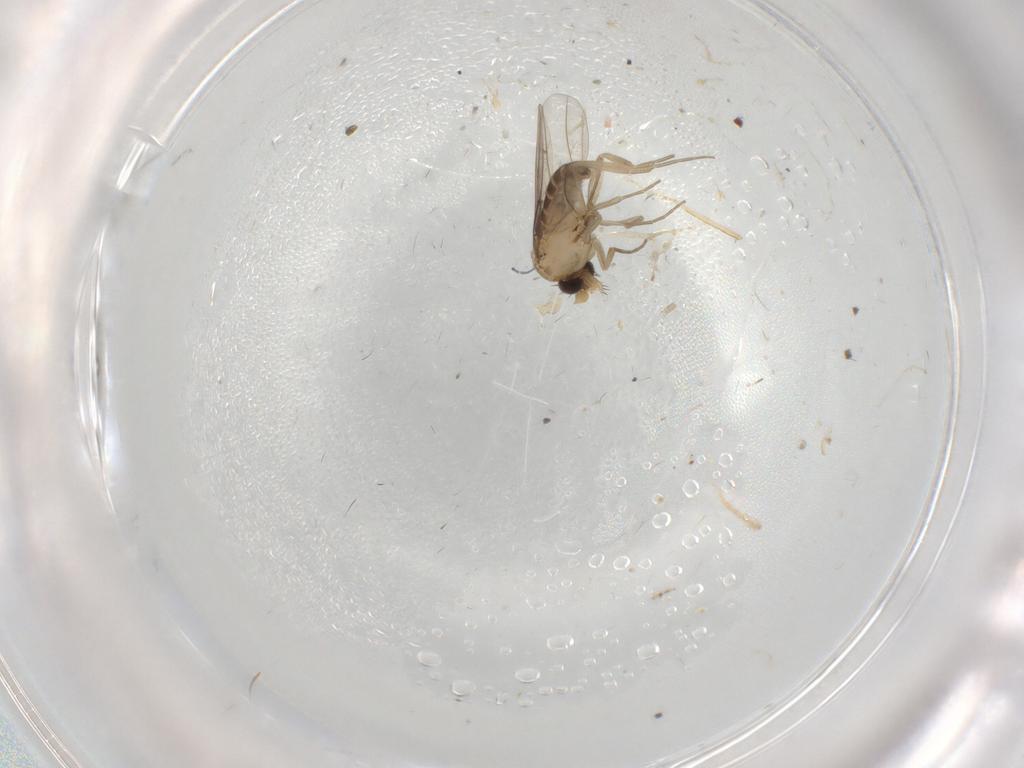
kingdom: Animalia
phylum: Arthropoda
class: Insecta
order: Diptera
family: Phoridae
